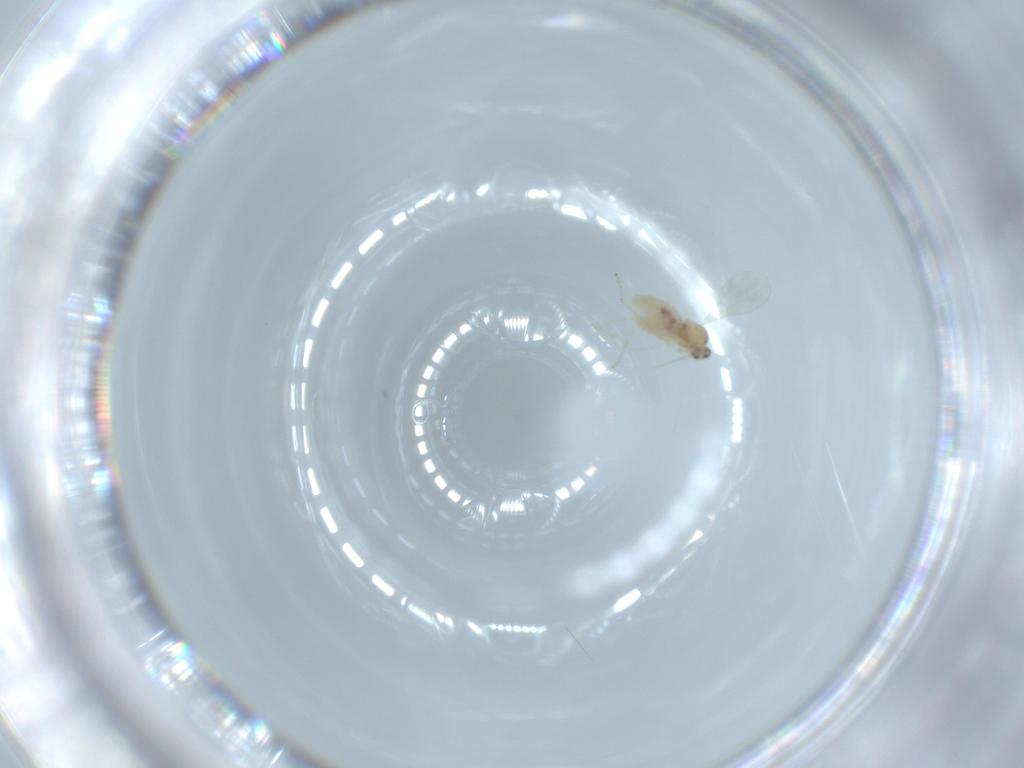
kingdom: Animalia
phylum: Arthropoda
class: Insecta
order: Diptera
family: Cecidomyiidae
